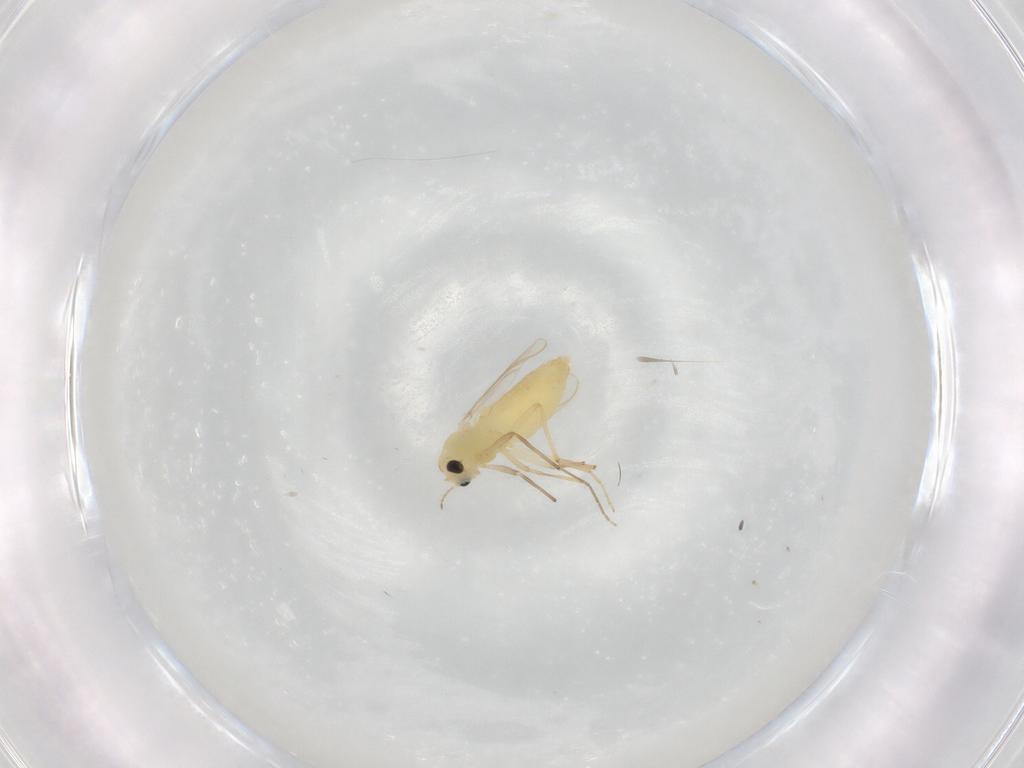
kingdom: Animalia
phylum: Arthropoda
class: Insecta
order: Diptera
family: Chironomidae
